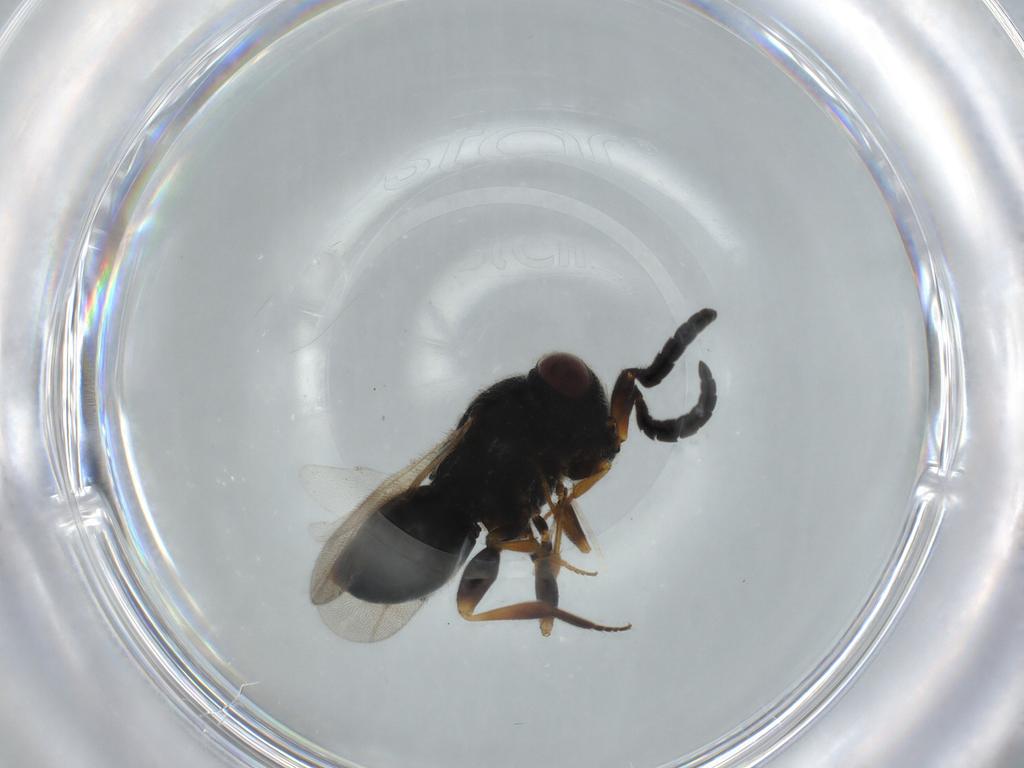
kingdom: Animalia
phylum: Arthropoda
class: Insecta
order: Hymenoptera
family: Megaspilidae
